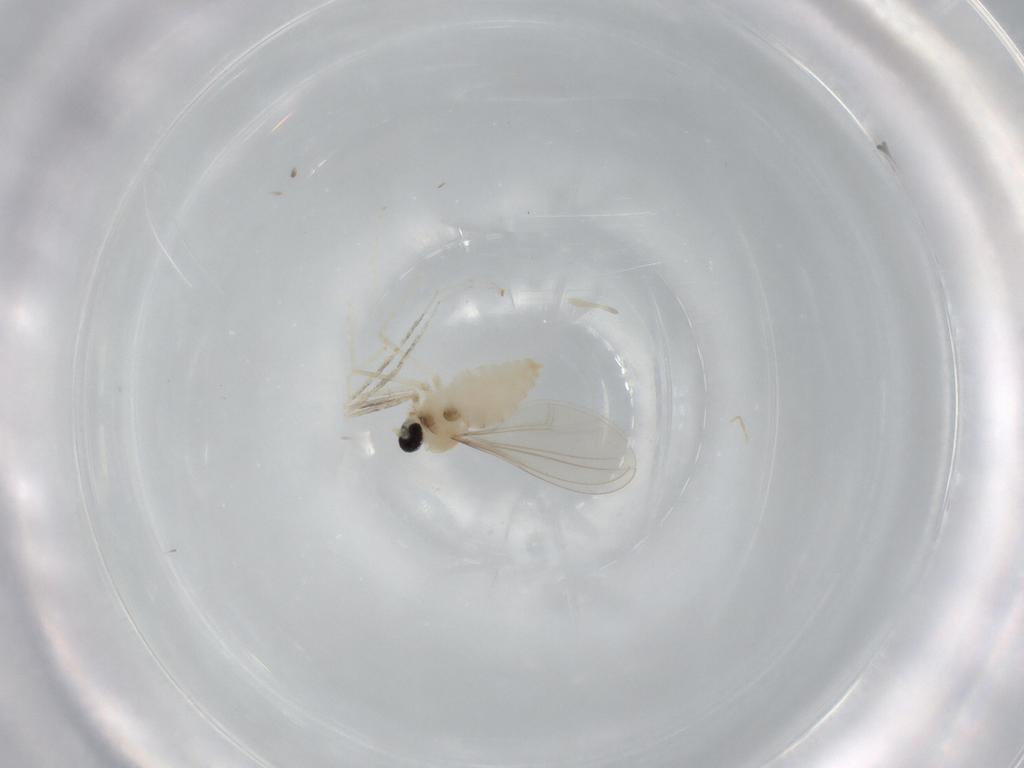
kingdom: Animalia
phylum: Arthropoda
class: Insecta
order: Diptera
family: Cecidomyiidae
